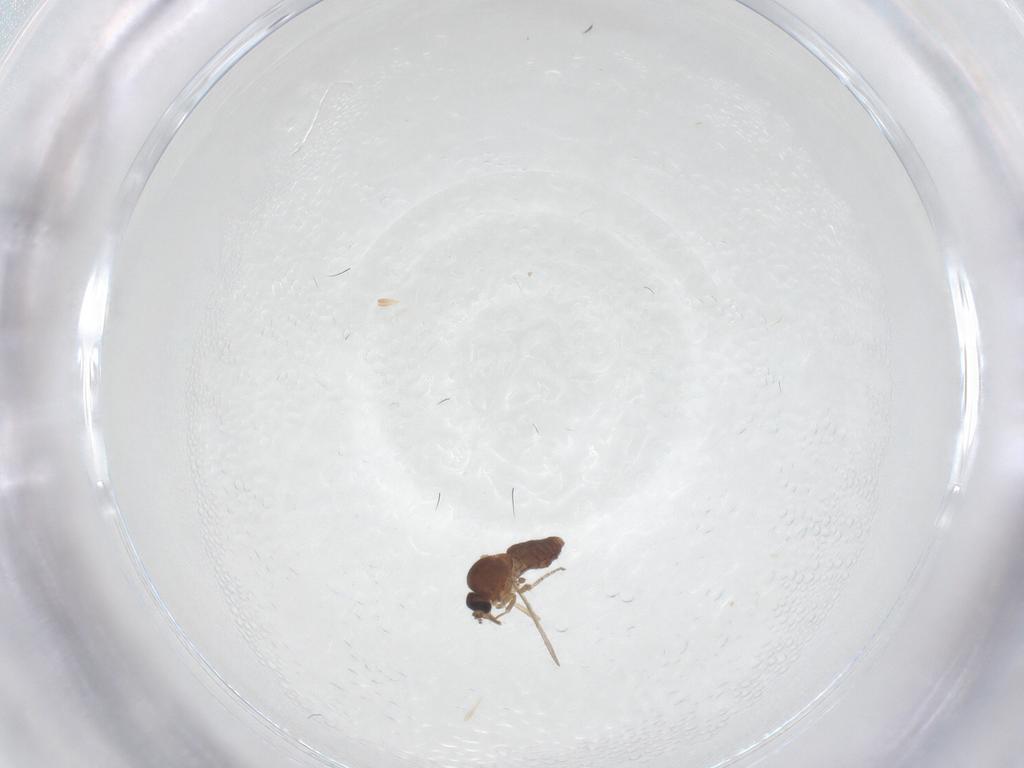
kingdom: Animalia
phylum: Arthropoda
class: Insecta
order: Diptera
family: Ceratopogonidae
